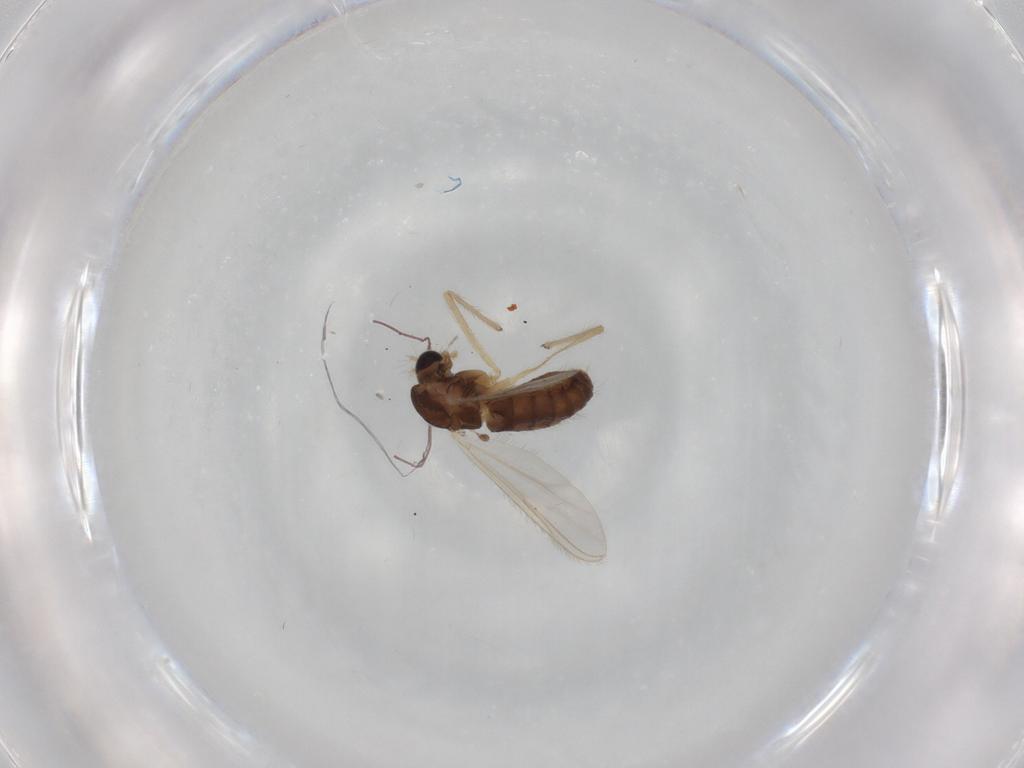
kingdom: Animalia
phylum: Arthropoda
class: Insecta
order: Diptera
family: Chironomidae
